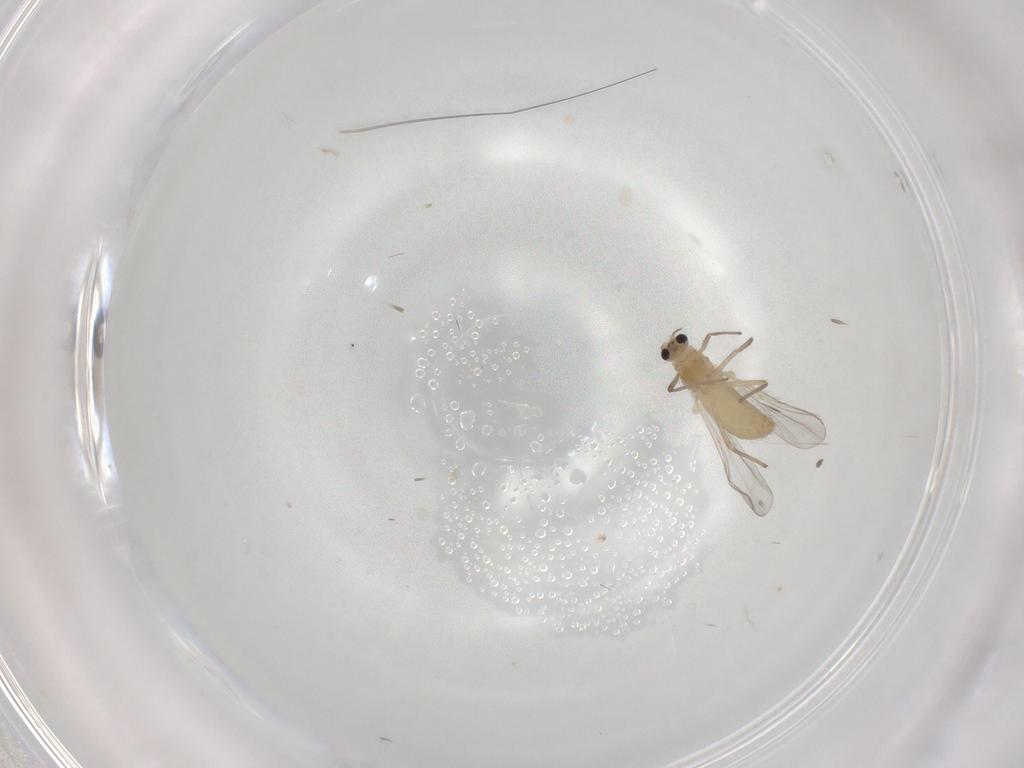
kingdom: Animalia
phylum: Arthropoda
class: Insecta
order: Diptera
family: Chironomidae
